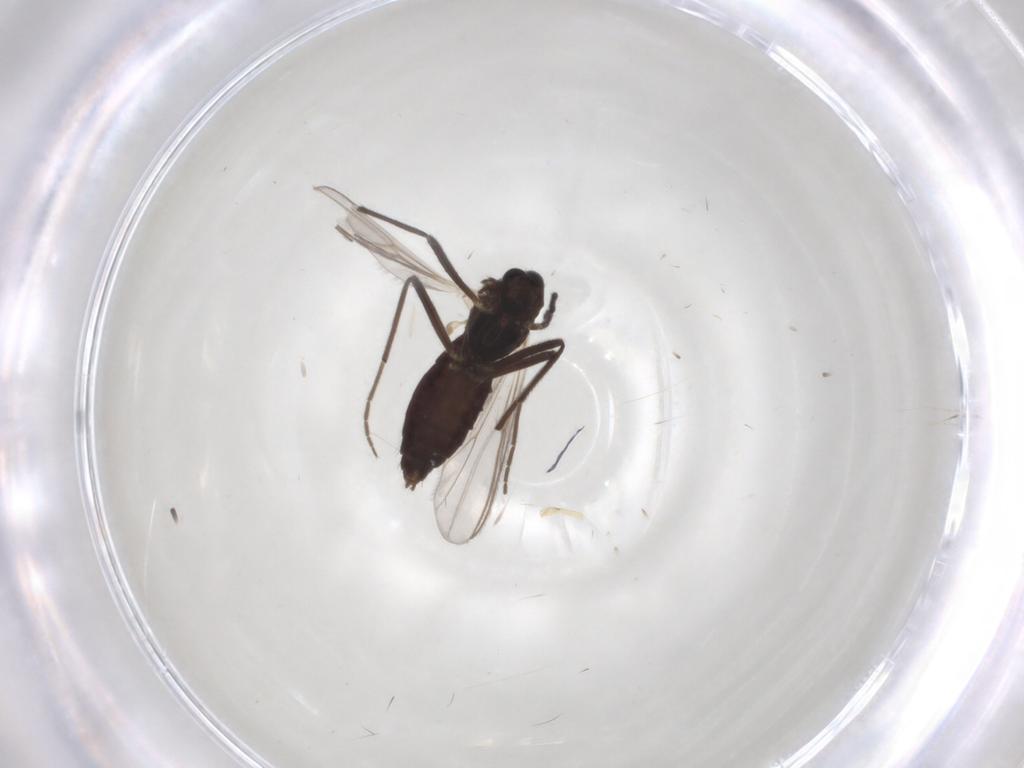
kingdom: Animalia
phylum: Arthropoda
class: Insecta
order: Diptera
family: Chironomidae
